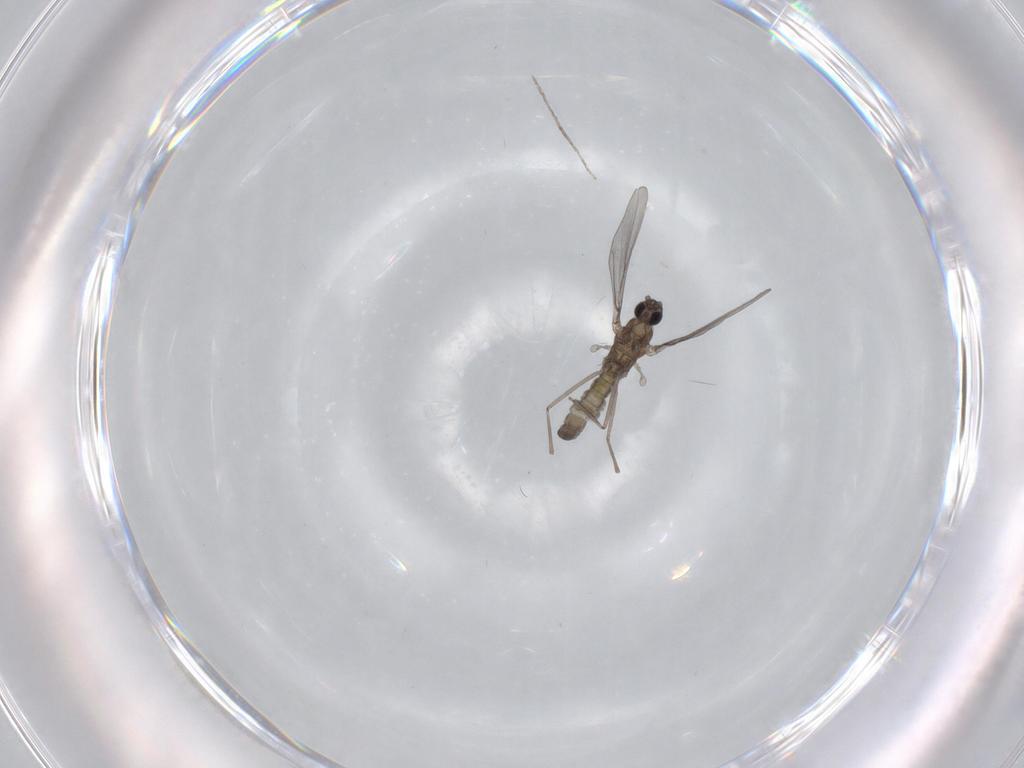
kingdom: Animalia
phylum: Arthropoda
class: Insecta
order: Diptera
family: Cecidomyiidae
